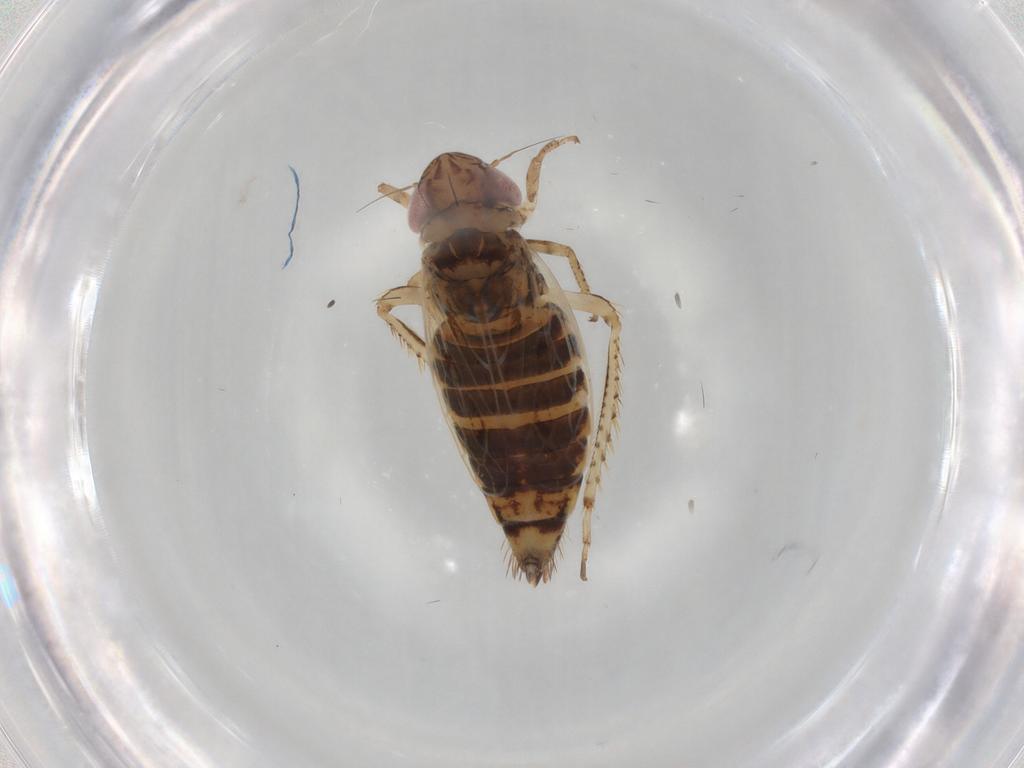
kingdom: Animalia
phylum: Arthropoda
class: Insecta
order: Hemiptera
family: Cicadellidae
